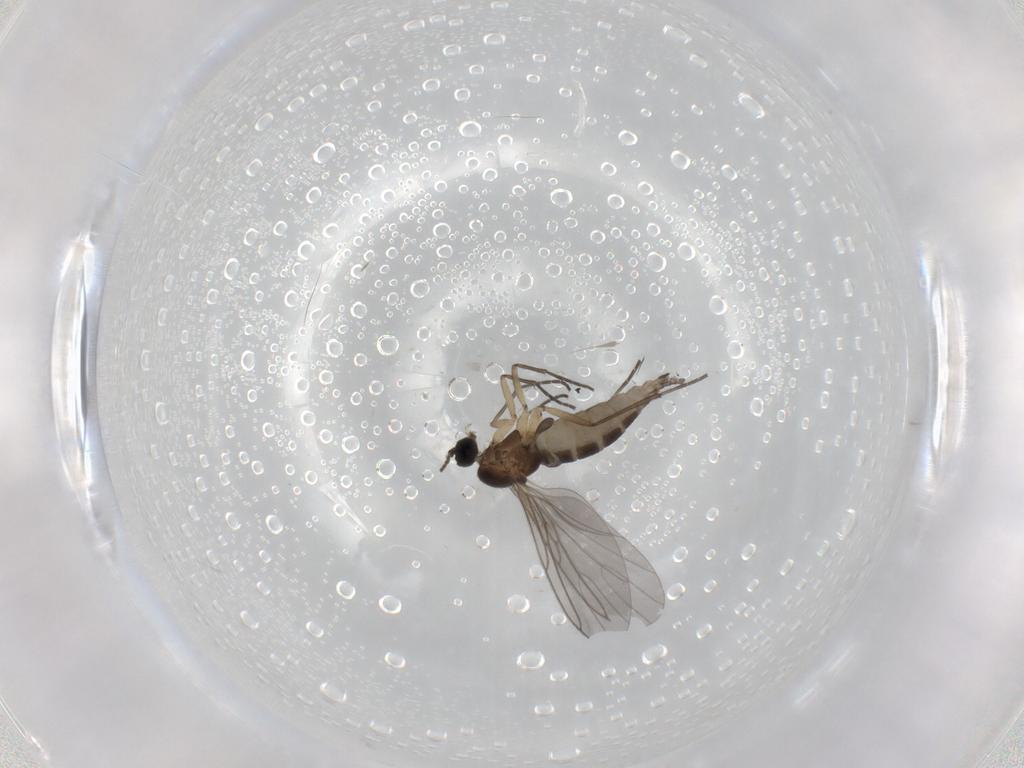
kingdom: Animalia
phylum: Arthropoda
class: Insecta
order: Diptera
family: Sciaridae
